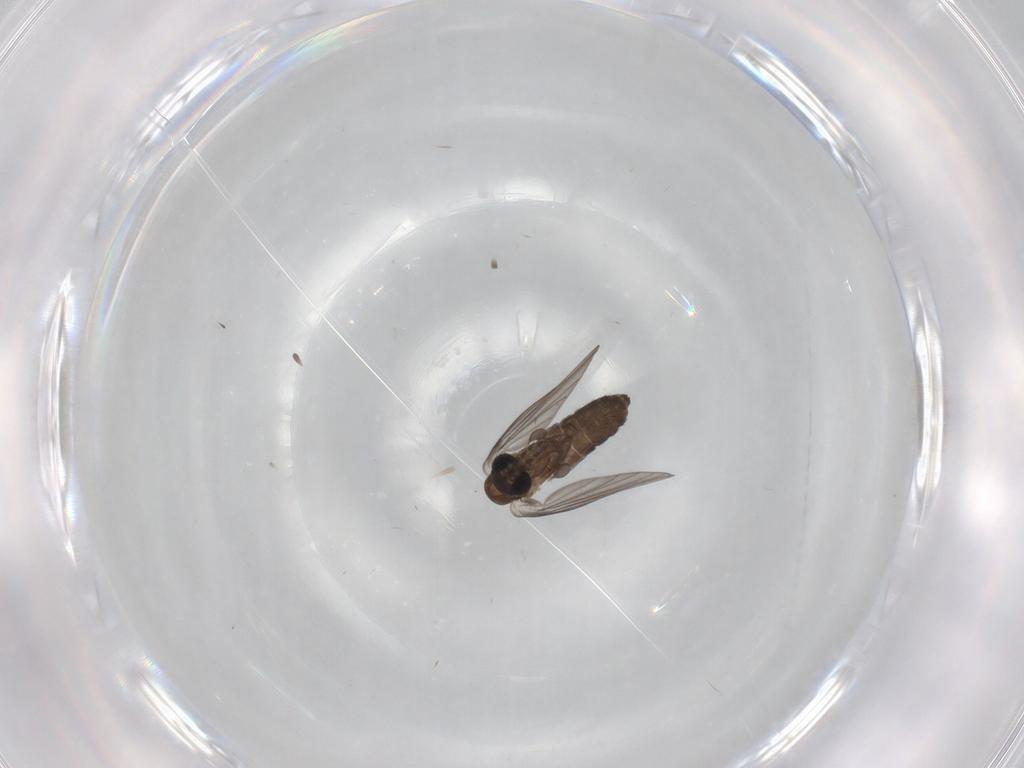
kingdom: Animalia
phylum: Arthropoda
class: Insecta
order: Diptera
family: Psychodidae
